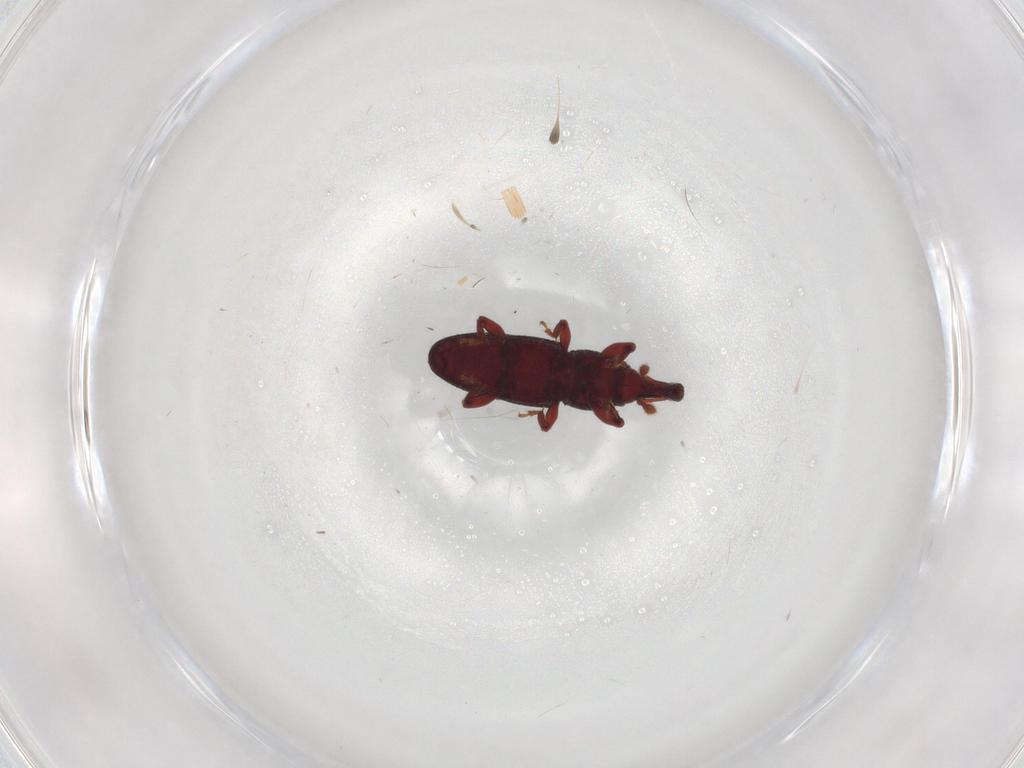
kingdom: Animalia
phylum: Arthropoda
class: Insecta
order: Coleoptera
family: Curculionidae
